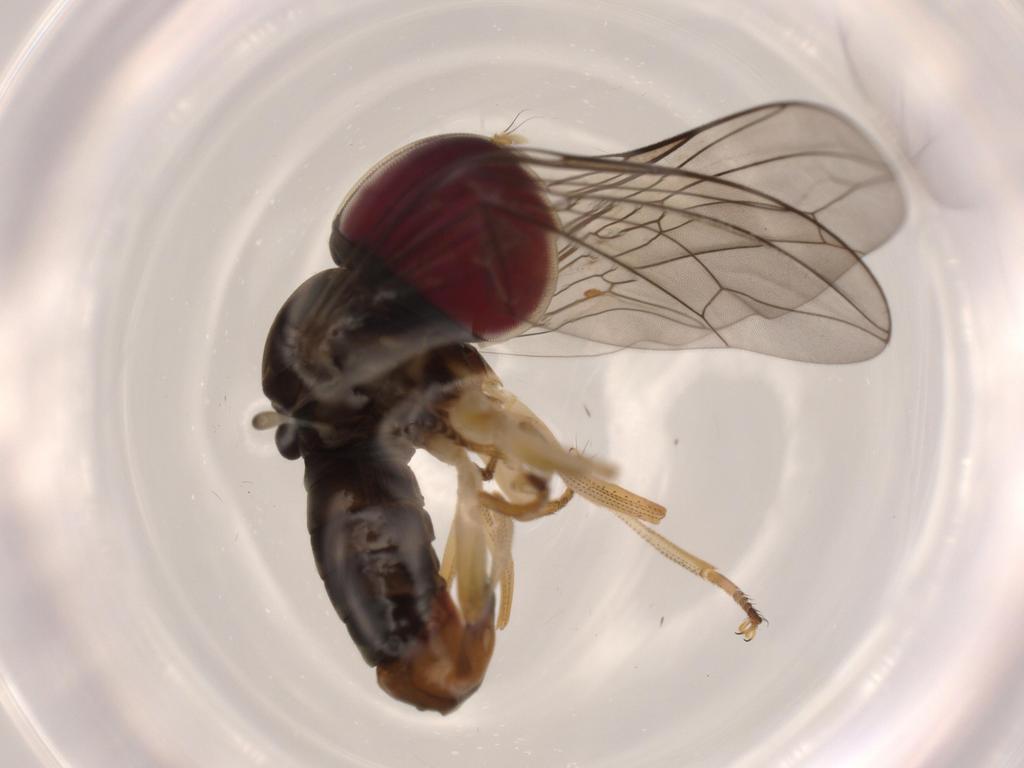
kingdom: Animalia
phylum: Arthropoda
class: Insecta
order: Diptera
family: Cecidomyiidae
